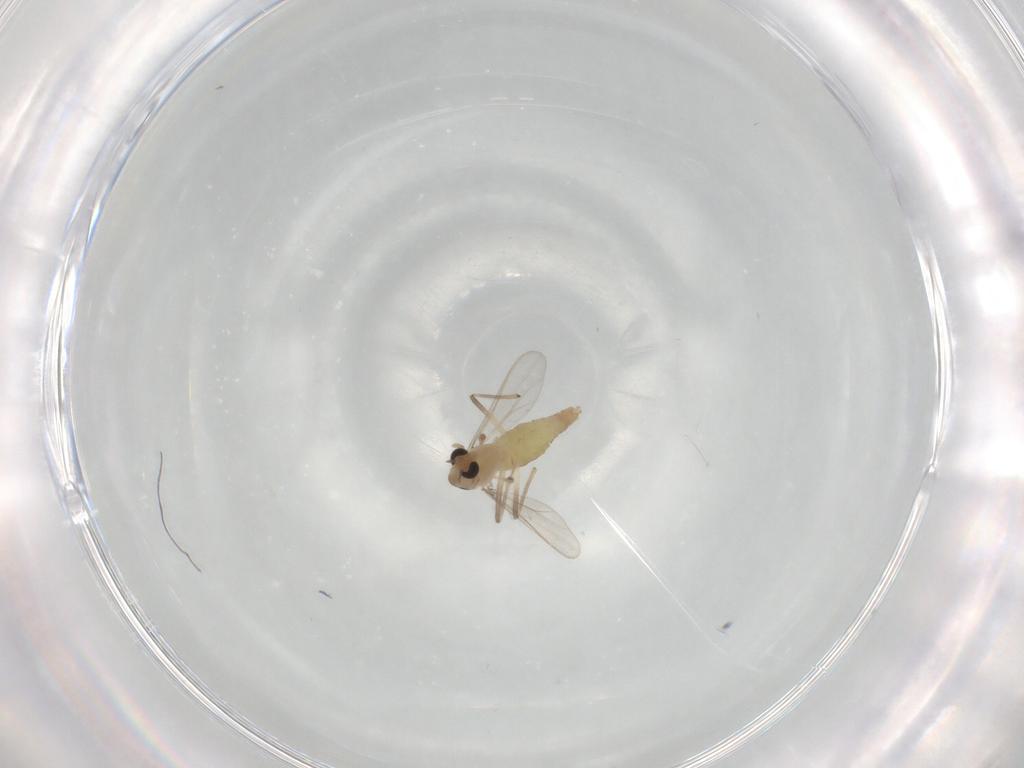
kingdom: Animalia
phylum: Arthropoda
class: Insecta
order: Diptera
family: Chironomidae
